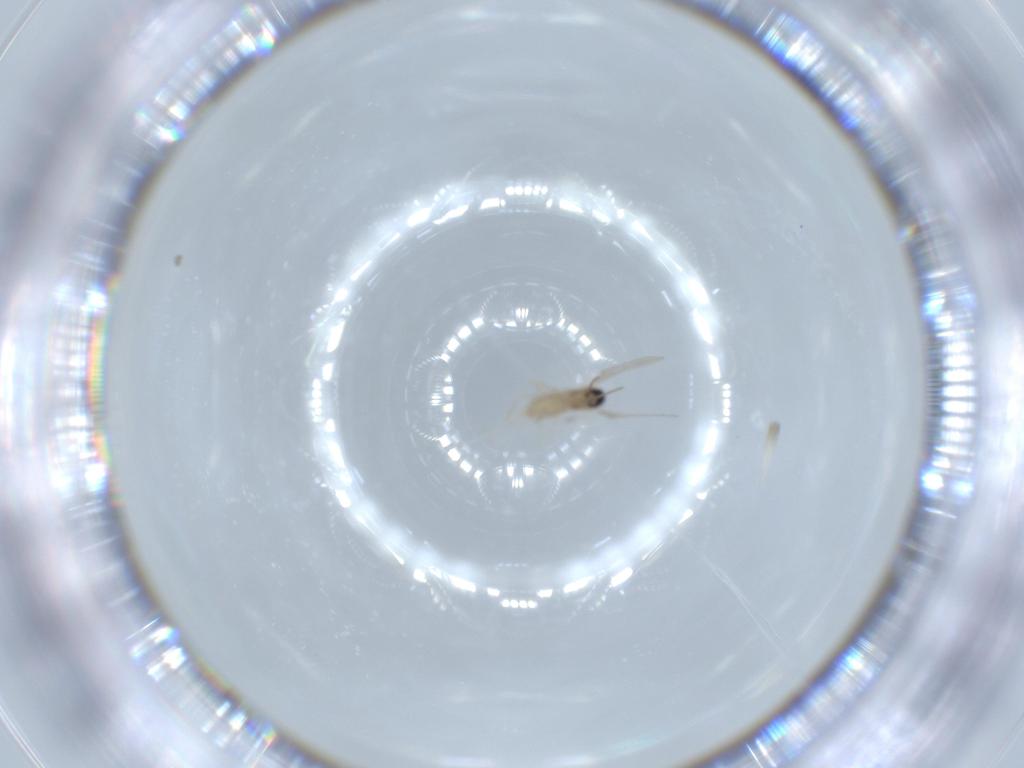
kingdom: Animalia
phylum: Arthropoda
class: Insecta
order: Diptera
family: Cecidomyiidae
